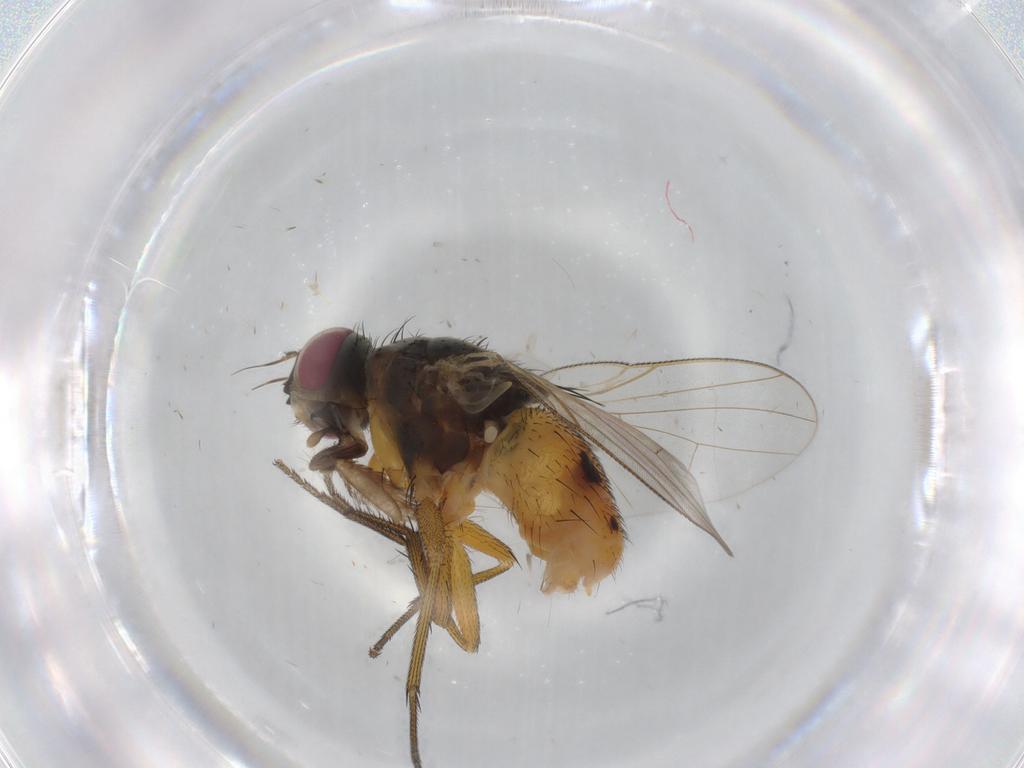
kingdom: Animalia
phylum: Arthropoda
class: Insecta
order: Diptera
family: Muscidae
